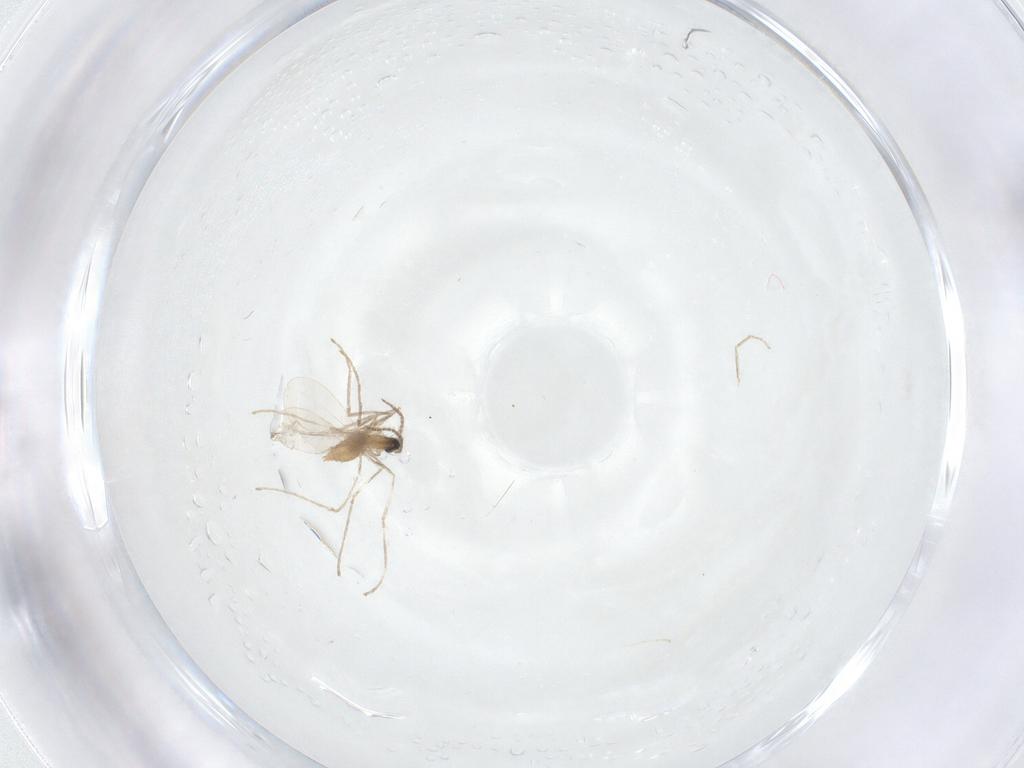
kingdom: Animalia
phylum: Arthropoda
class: Insecta
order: Diptera
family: Cecidomyiidae
